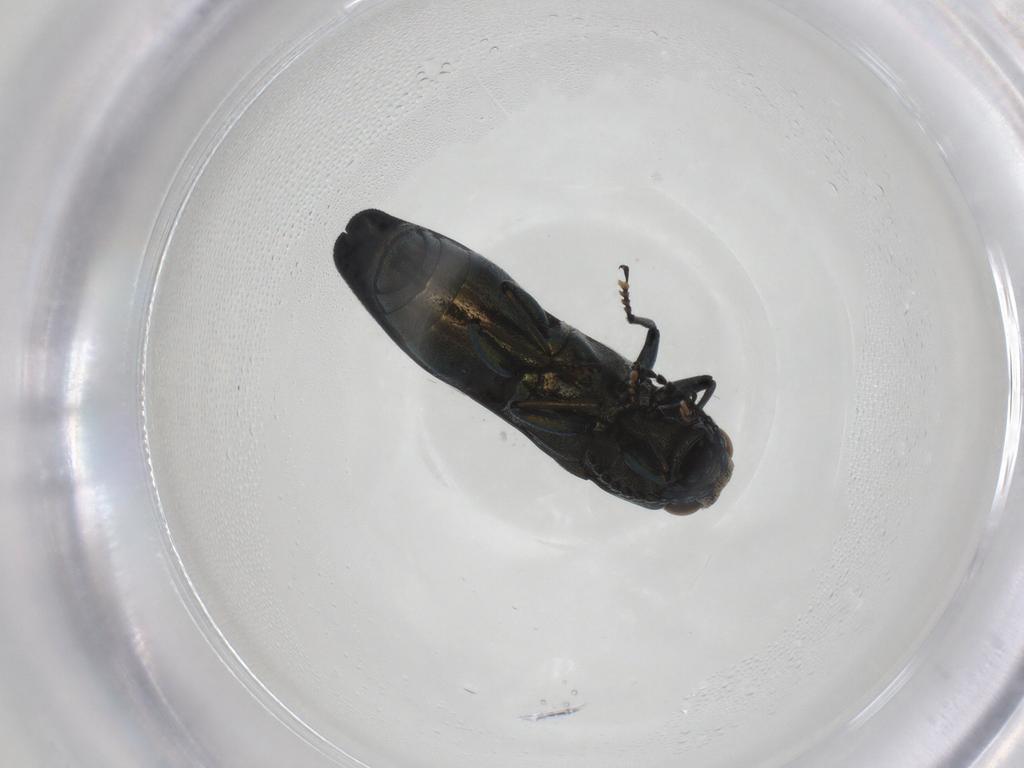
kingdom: Animalia
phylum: Arthropoda
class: Insecta
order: Coleoptera
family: Buprestidae
